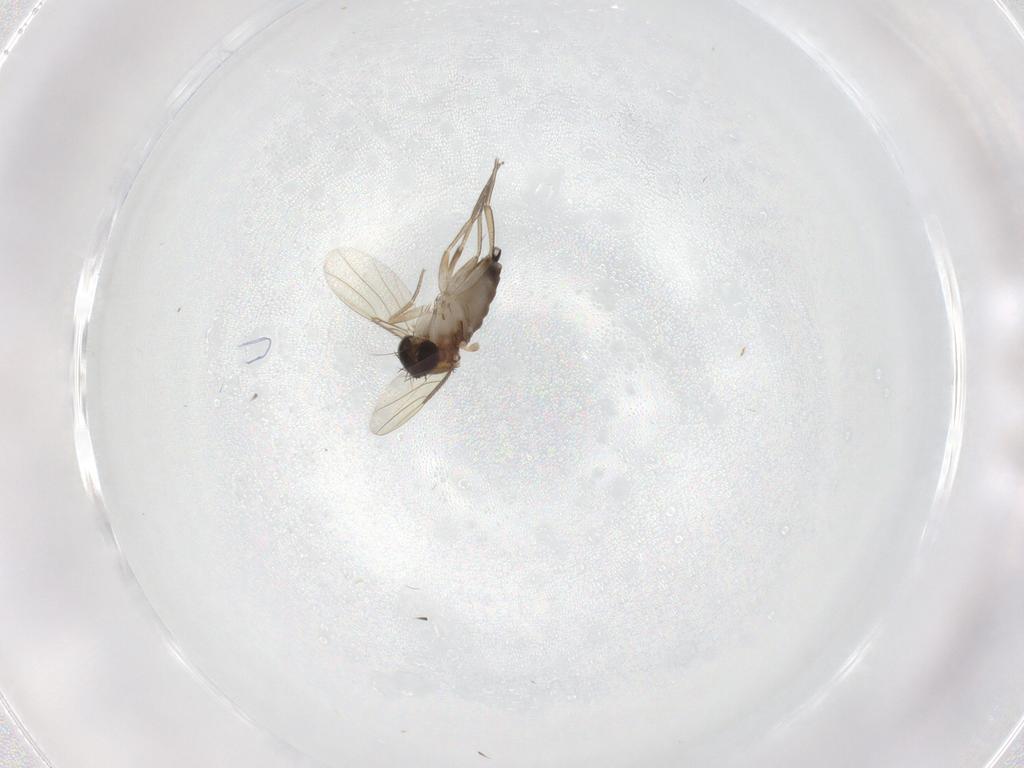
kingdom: Animalia
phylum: Arthropoda
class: Insecta
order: Diptera
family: Phoridae
